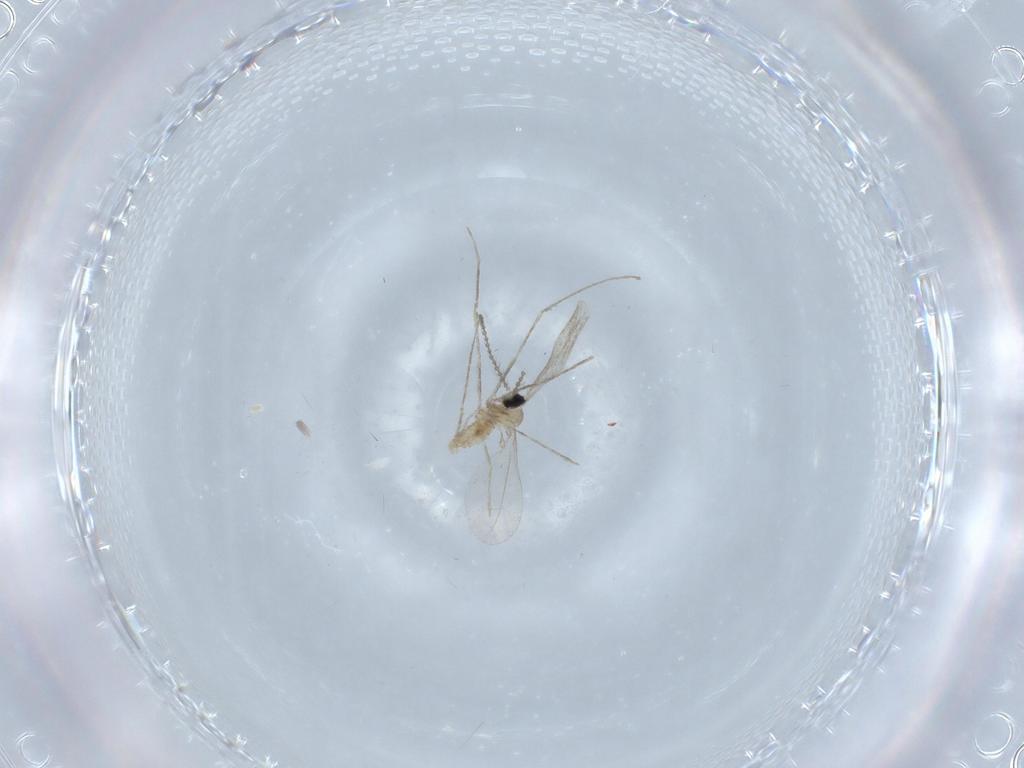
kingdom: Animalia
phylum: Arthropoda
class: Insecta
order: Diptera
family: Cecidomyiidae
